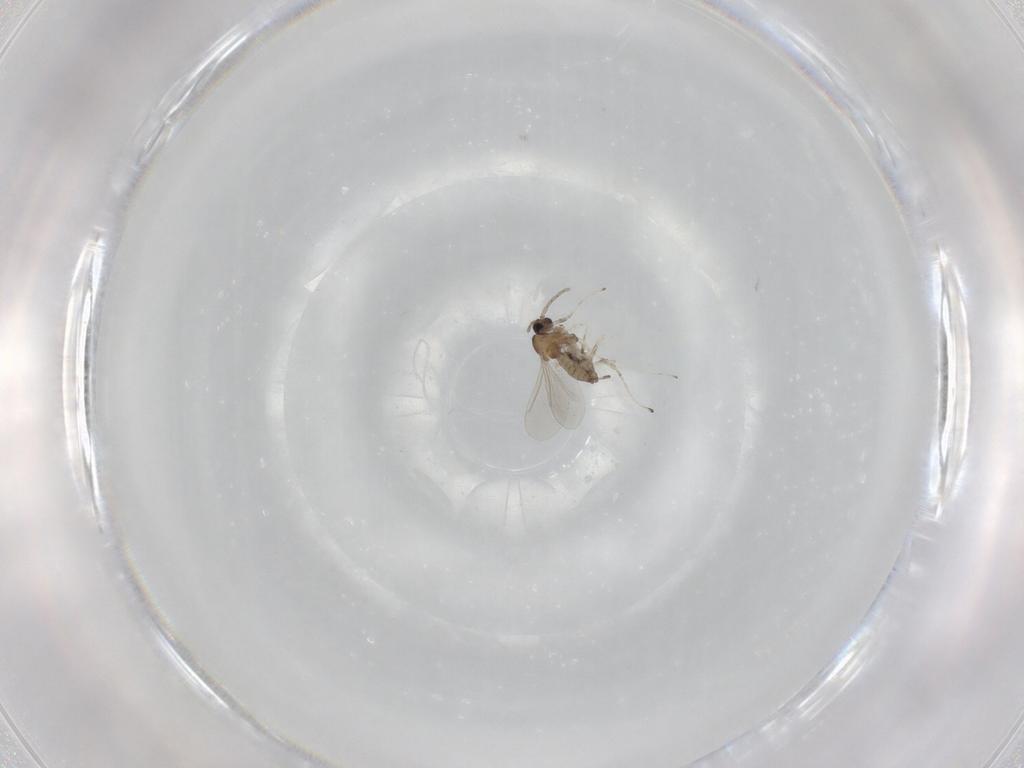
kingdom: Animalia
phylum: Arthropoda
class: Insecta
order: Diptera
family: Cecidomyiidae
